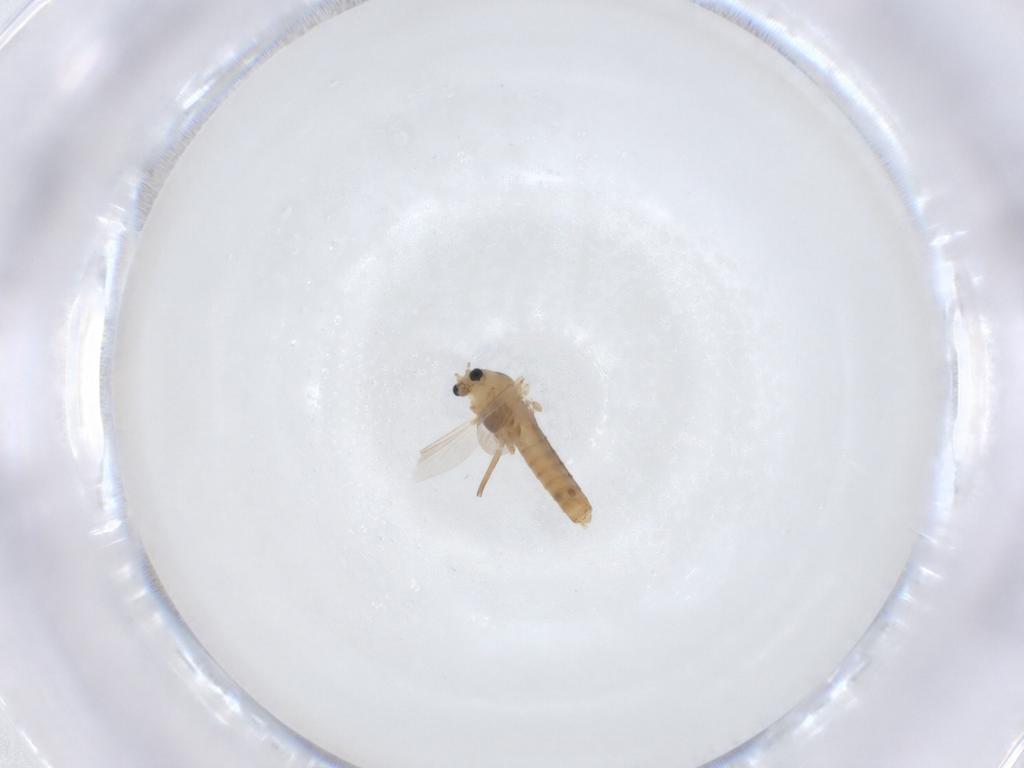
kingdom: Animalia
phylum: Arthropoda
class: Insecta
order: Diptera
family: Chironomidae
